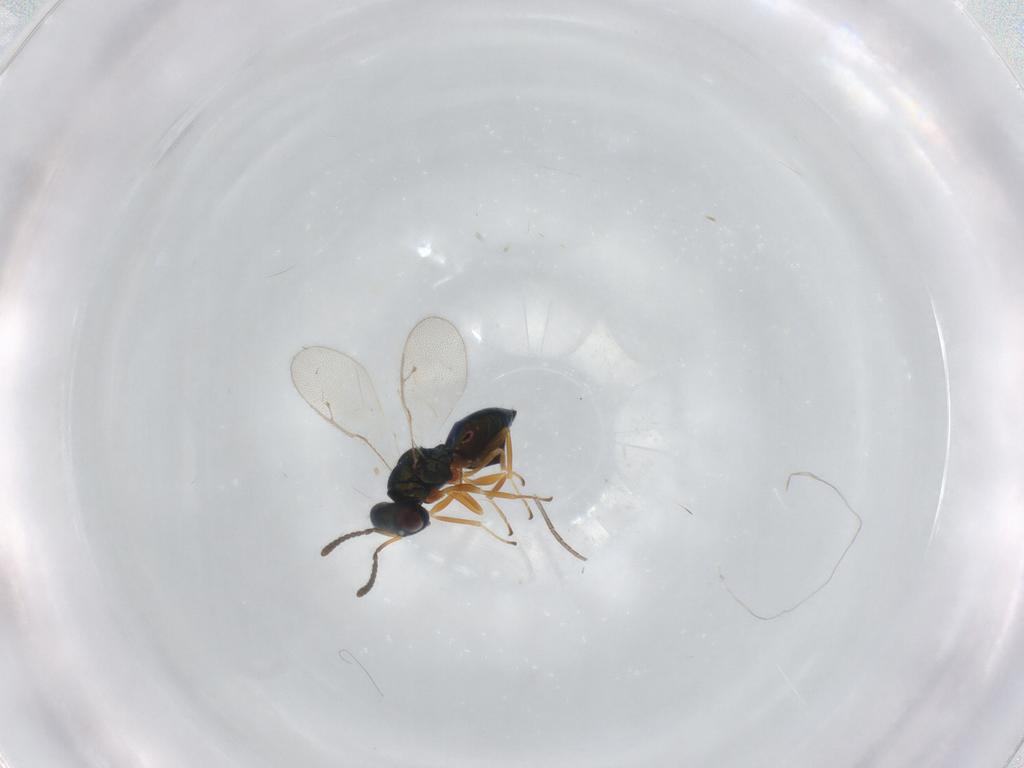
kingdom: Animalia
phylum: Arthropoda
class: Insecta
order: Hymenoptera
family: Pteromalidae
